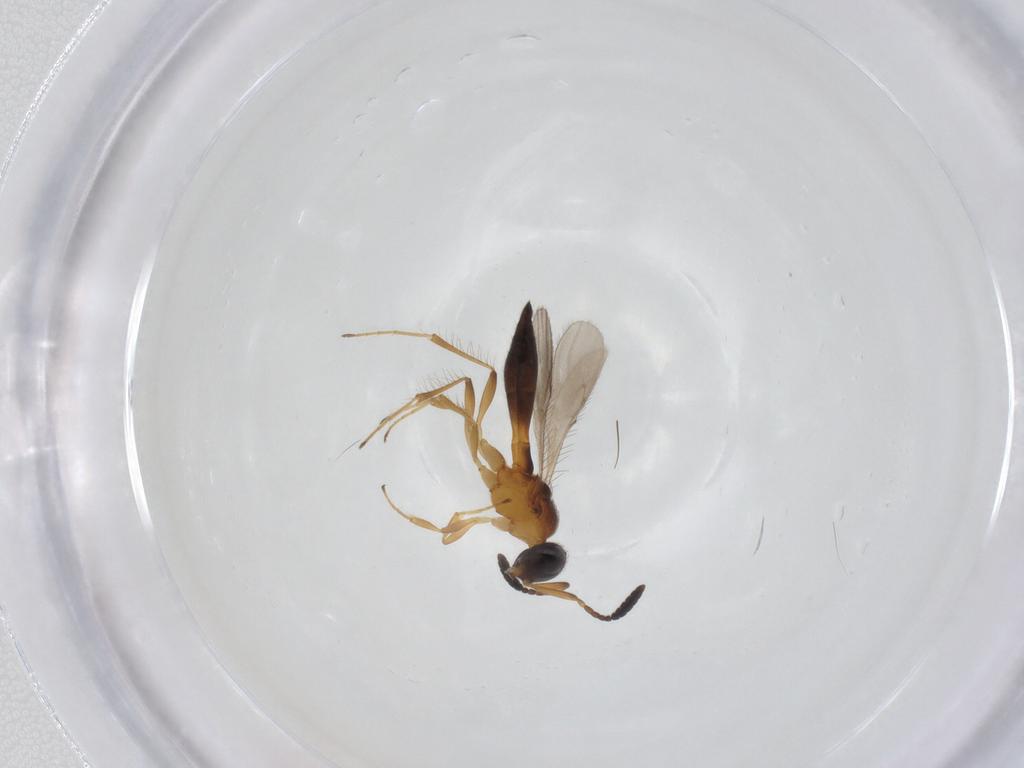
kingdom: Animalia
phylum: Arthropoda
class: Insecta
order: Hymenoptera
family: Scelionidae
